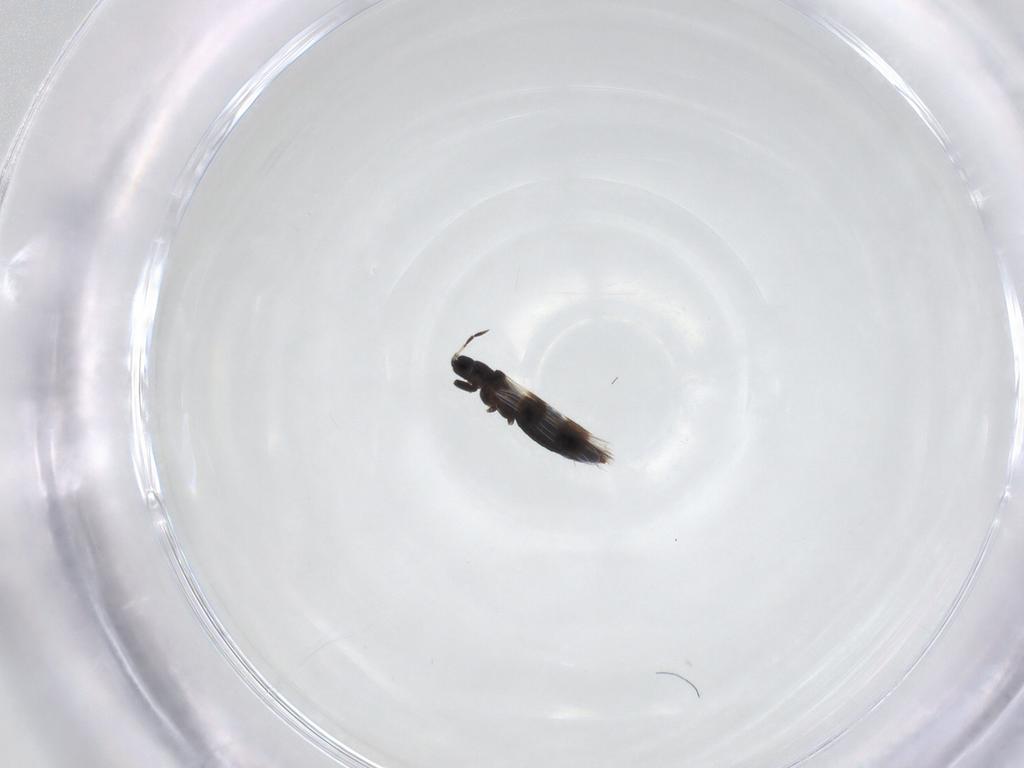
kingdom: Animalia
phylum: Arthropoda
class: Insecta
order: Thysanoptera
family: Aeolothripidae
